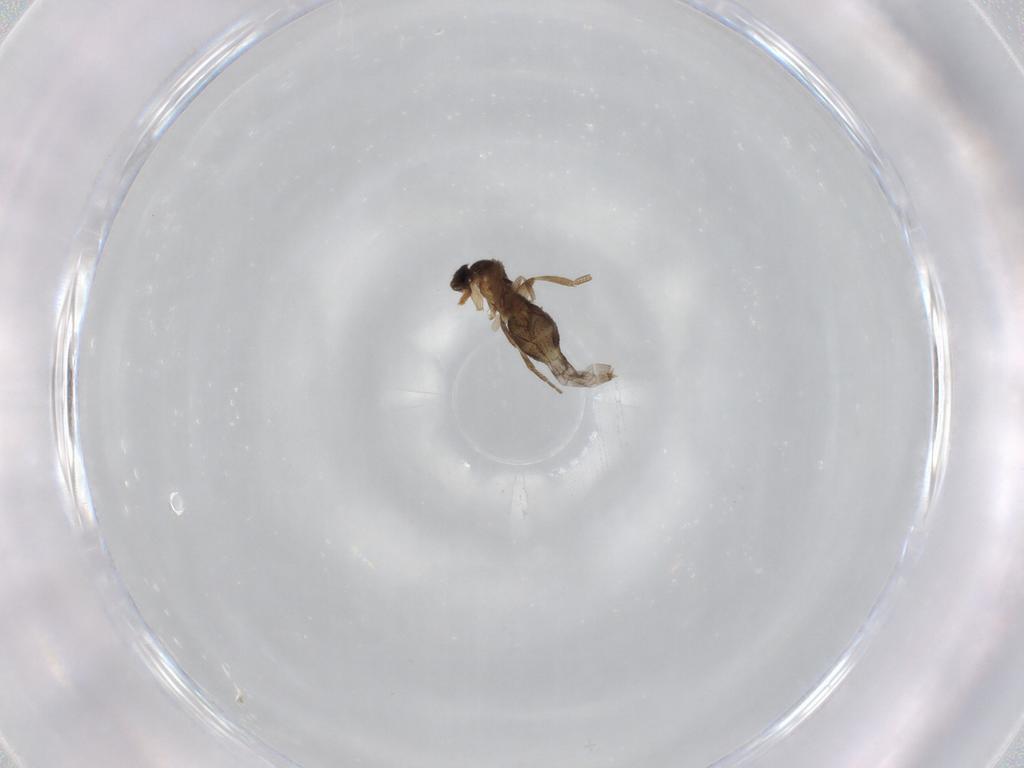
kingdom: Animalia
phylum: Arthropoda
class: Insecta
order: Diptera
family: Phoridae
